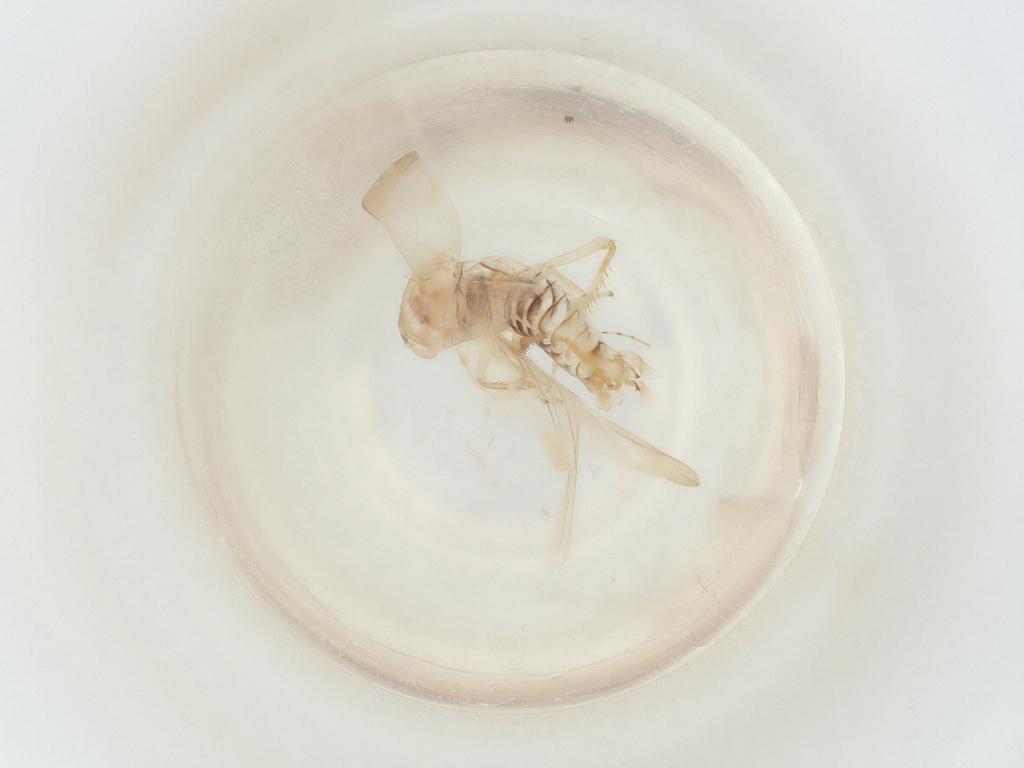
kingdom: Animalia
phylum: Arthropoda
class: Insecta
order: Hemiptera
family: Cicadellidae
